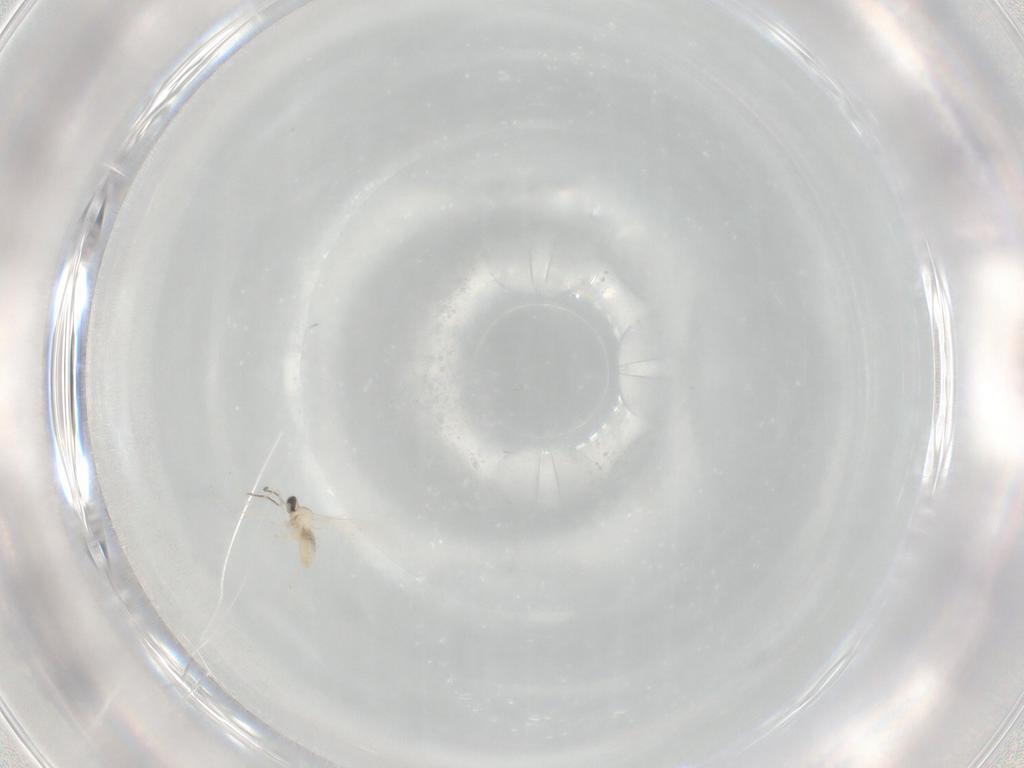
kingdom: Animalia
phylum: Arthropoda
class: Insecta
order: Diptera
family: Cecidomyiidae
